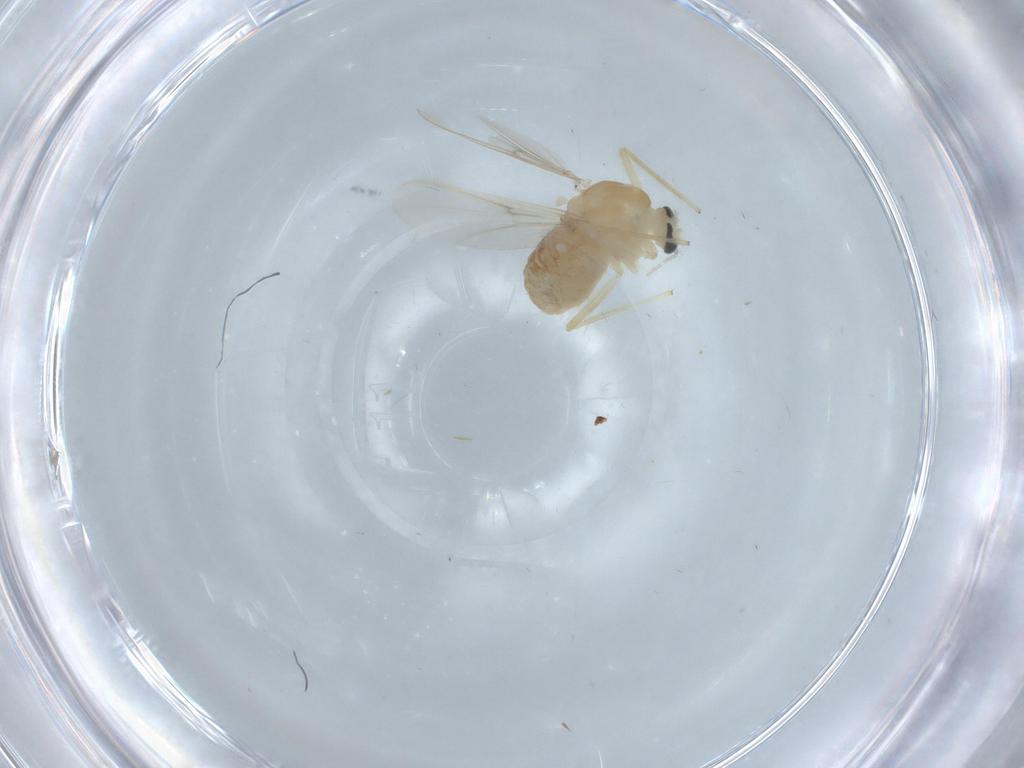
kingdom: Animalia
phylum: Arthropoda
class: Insecta
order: Diptera
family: Chironomidae
